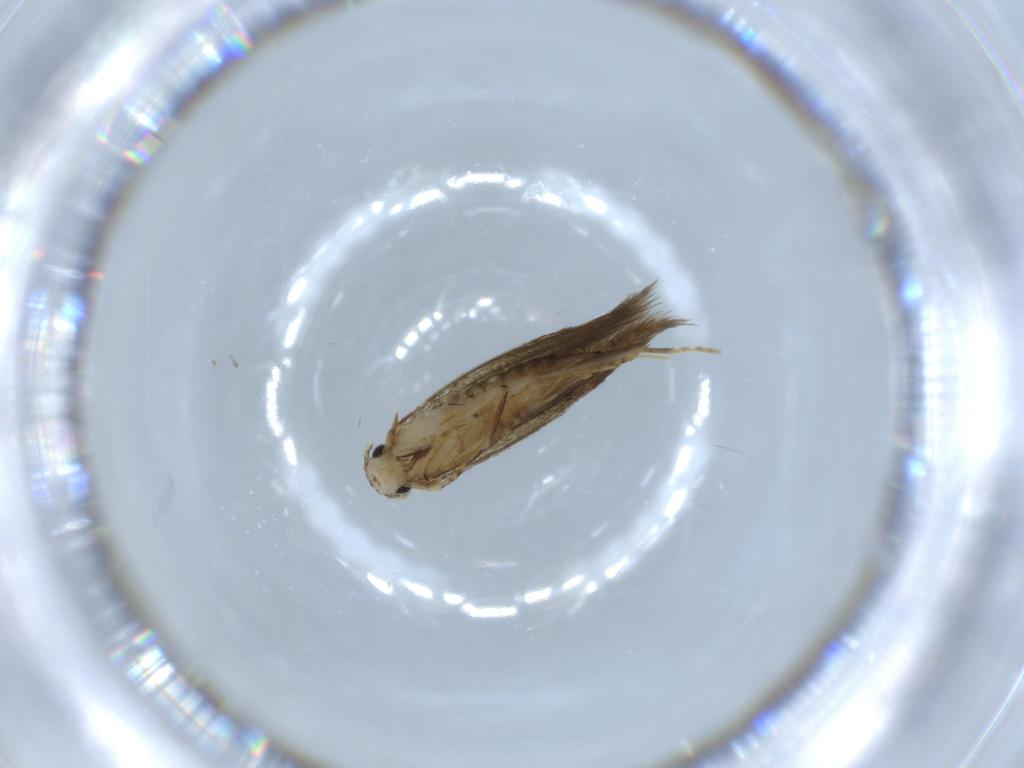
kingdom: Animalia
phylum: Arthropoda
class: Insecta
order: Lepidoptera
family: Tineidae
